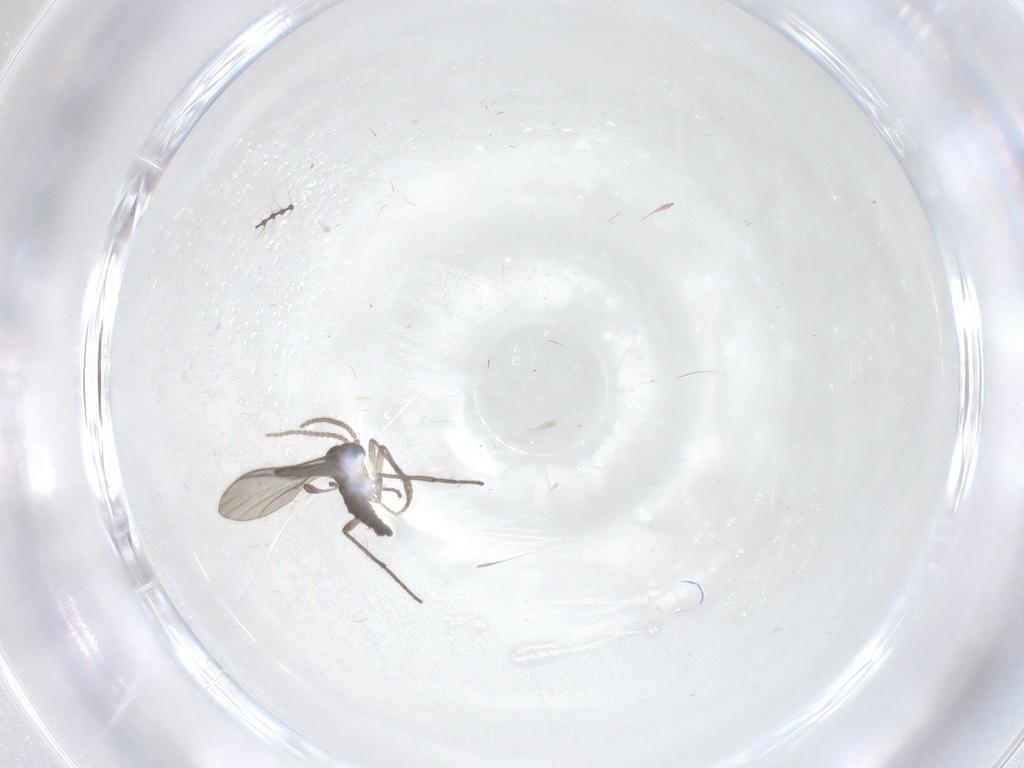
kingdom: Animalia
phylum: Arthropoda
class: Insecta
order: Diptera
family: Sciaridae
